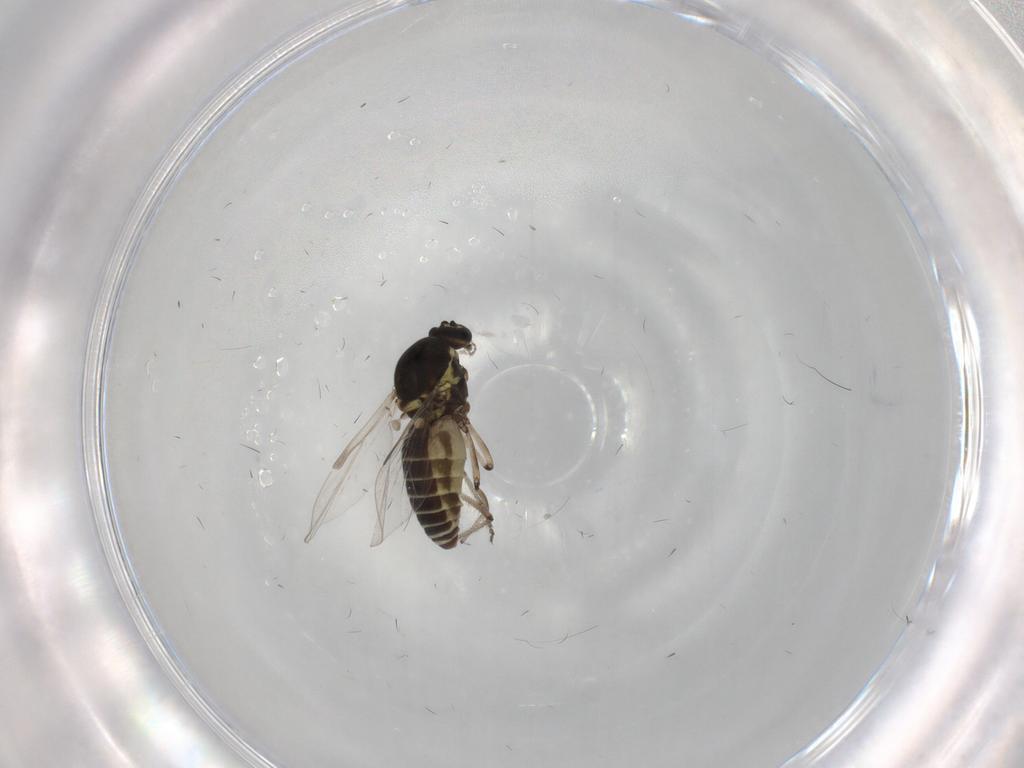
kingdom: Animalia
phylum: Arthropoda
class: Insecta
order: Diptera
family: Ceratopogonidae
